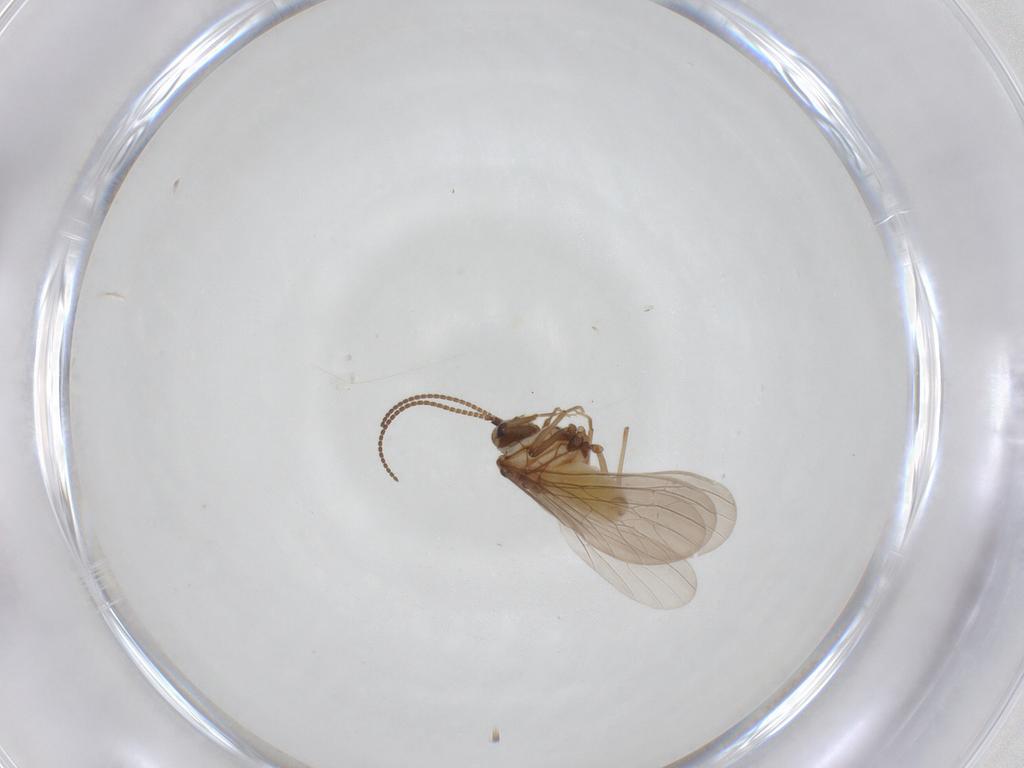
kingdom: Animalia
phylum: Arthropoda
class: Insecta
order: Neuroptera
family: Coniopterygidae
